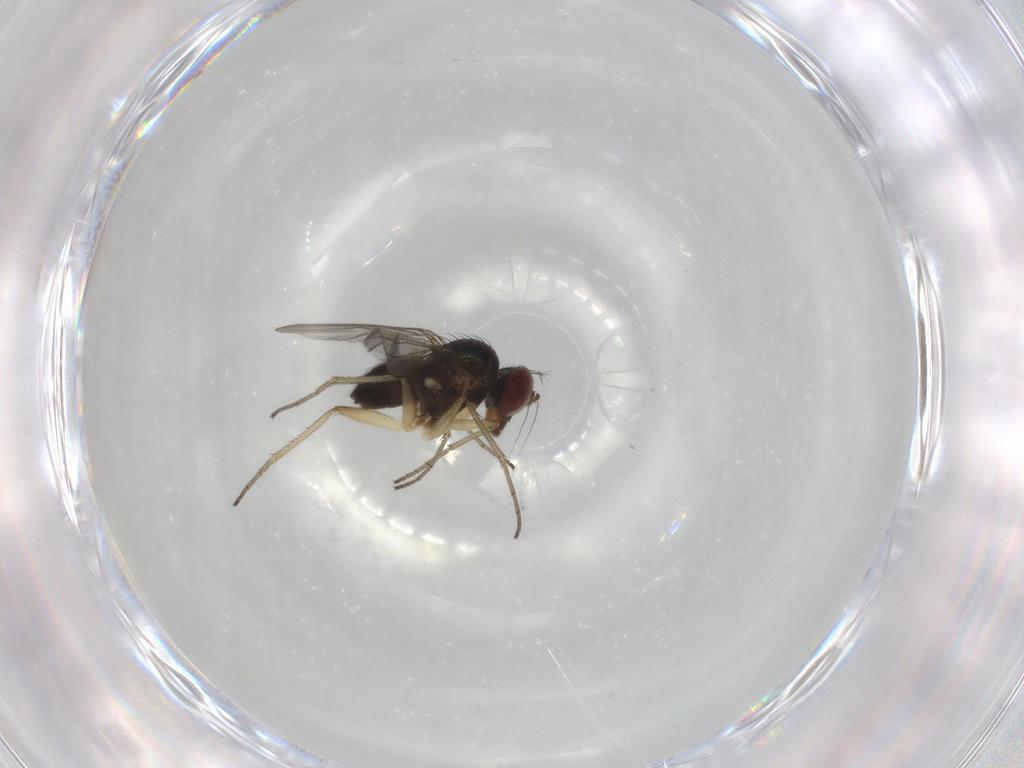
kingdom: Animalia
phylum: Arthropoda
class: Insecta
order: Diptera
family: Dolichopodidae
